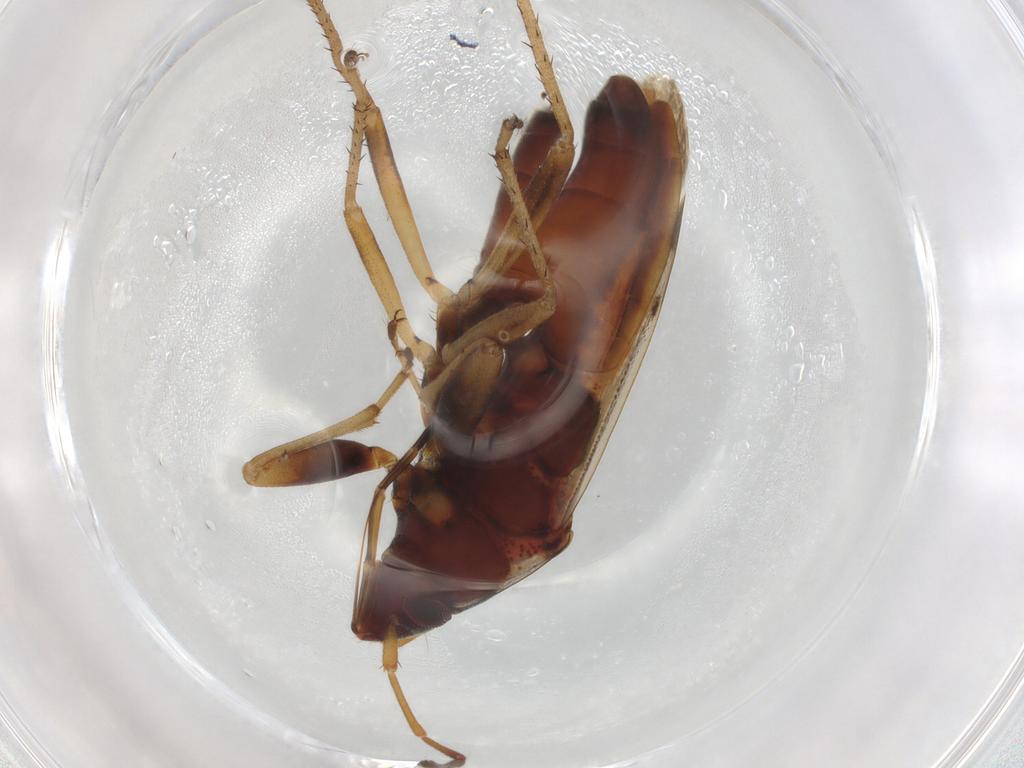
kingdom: Animalia
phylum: Arthropoda
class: Insecta
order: Hemiptera
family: Rhyparochromidae
